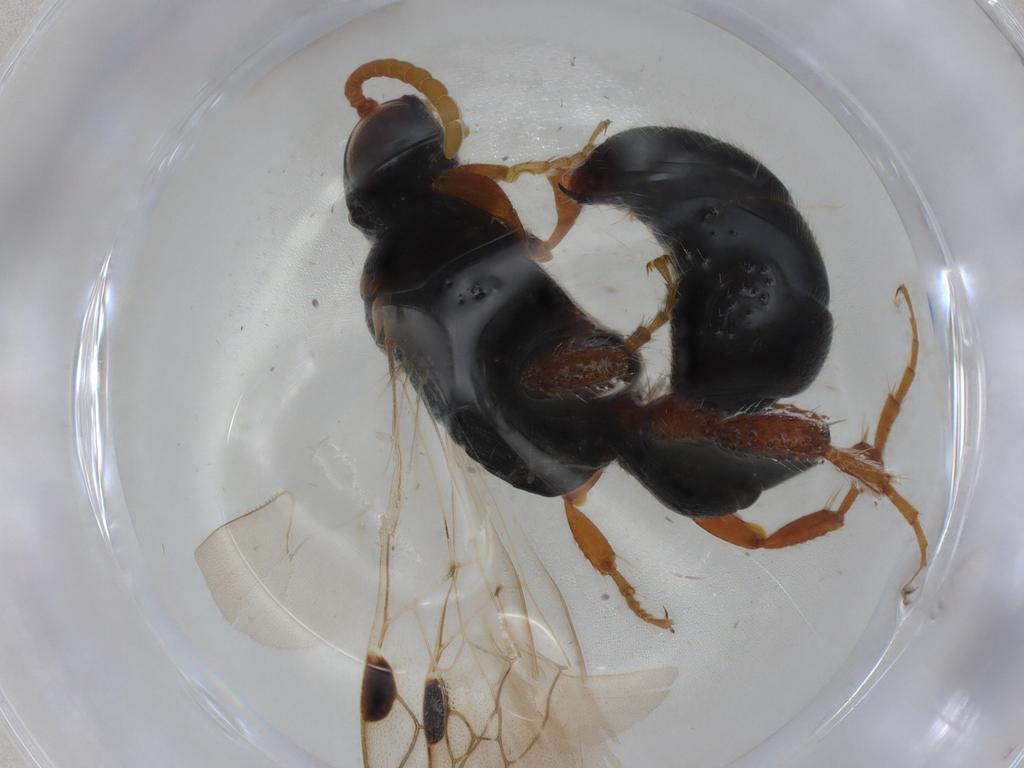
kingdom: Animalia
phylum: Arthropoda
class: Insecta
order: Hymenoptera
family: Tiphiidae
